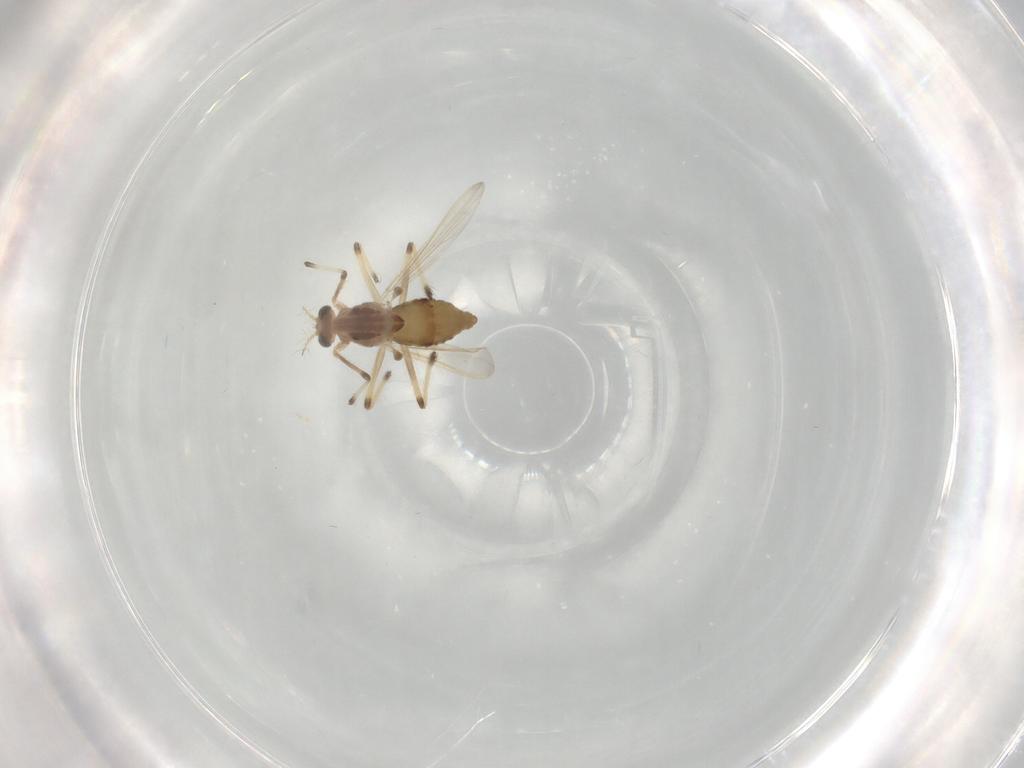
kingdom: Animalia
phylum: Arthropoda
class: Insecta
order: Diptera
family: Chironomidae
